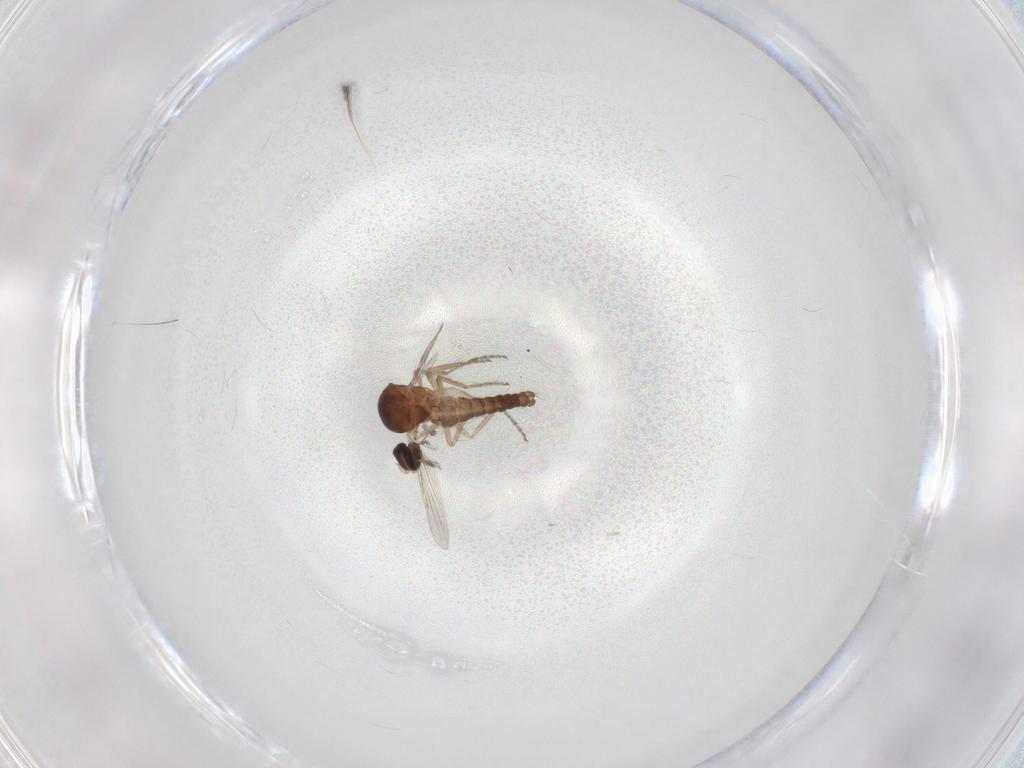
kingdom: Animalia
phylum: Arthropoda
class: Insecta
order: Diptera
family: Ceratopogonidae
